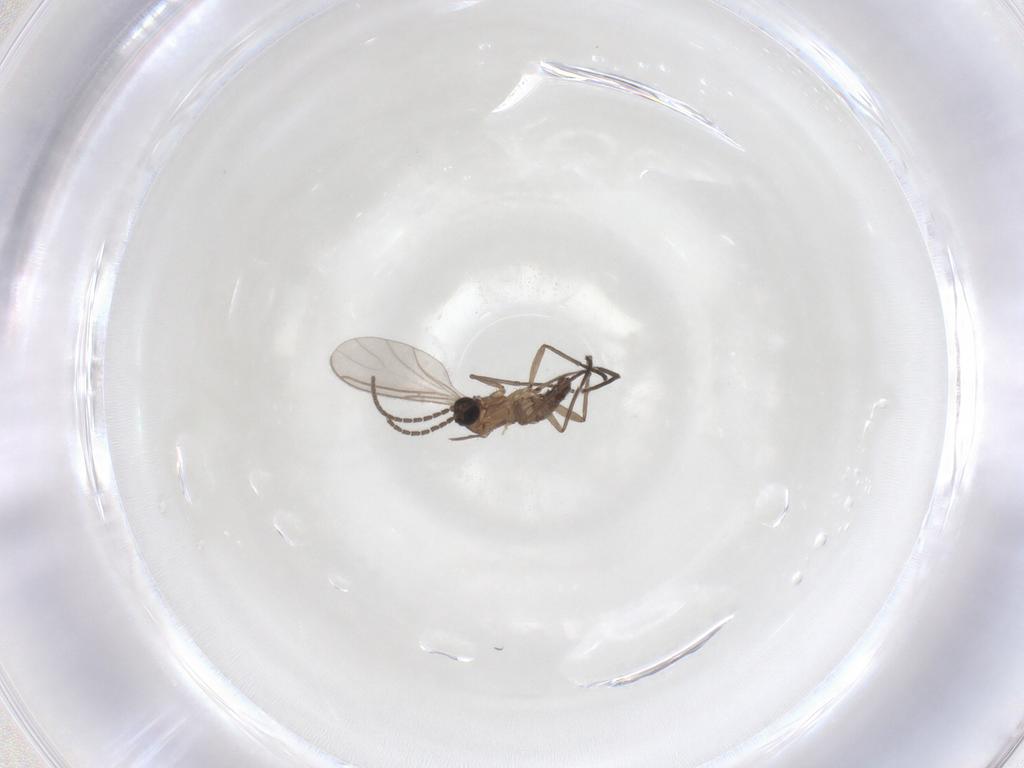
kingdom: Animalia
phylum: Arthropoda
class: Insecta
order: Diptera
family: Sciaridae
